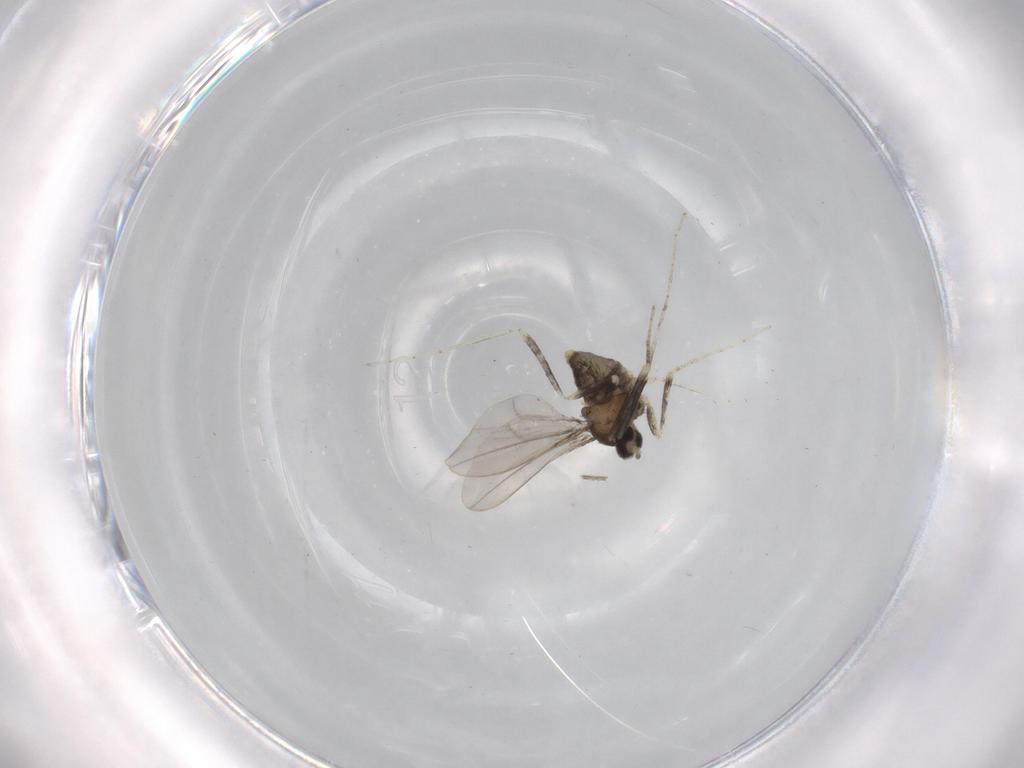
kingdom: Animalia
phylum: Arthropoda
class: Insecta
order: Diptera
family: Cecidomyiidae
